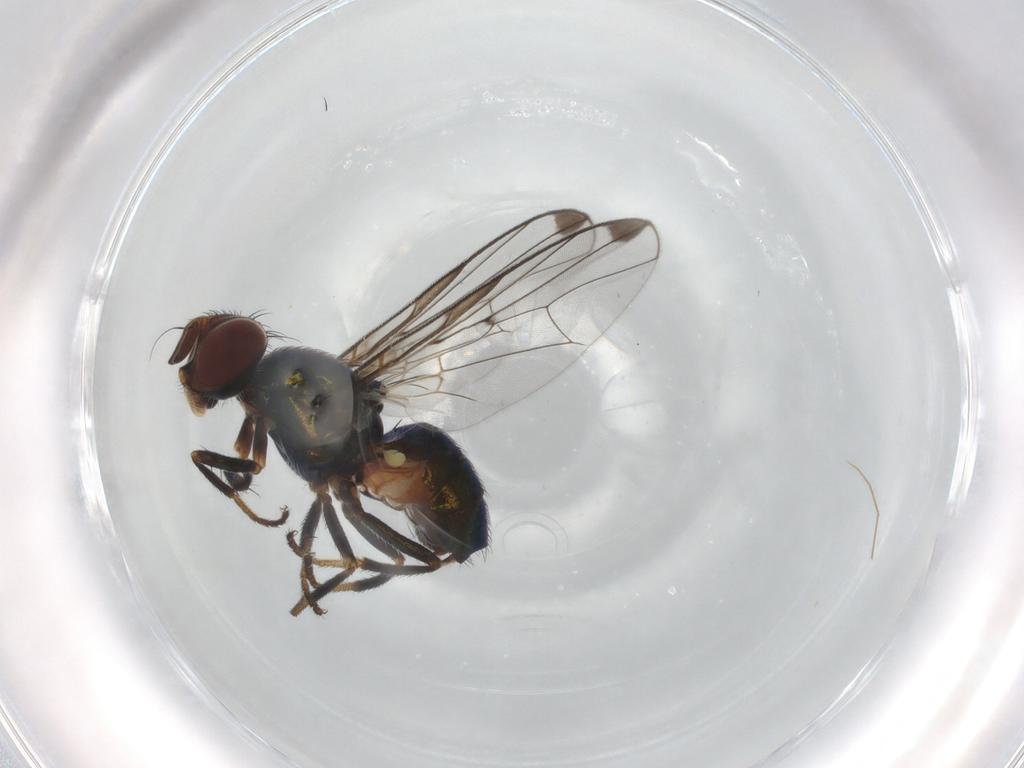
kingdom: Animalia
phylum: Arthropoda
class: Insecta
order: Diptera
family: Platystomatidae
